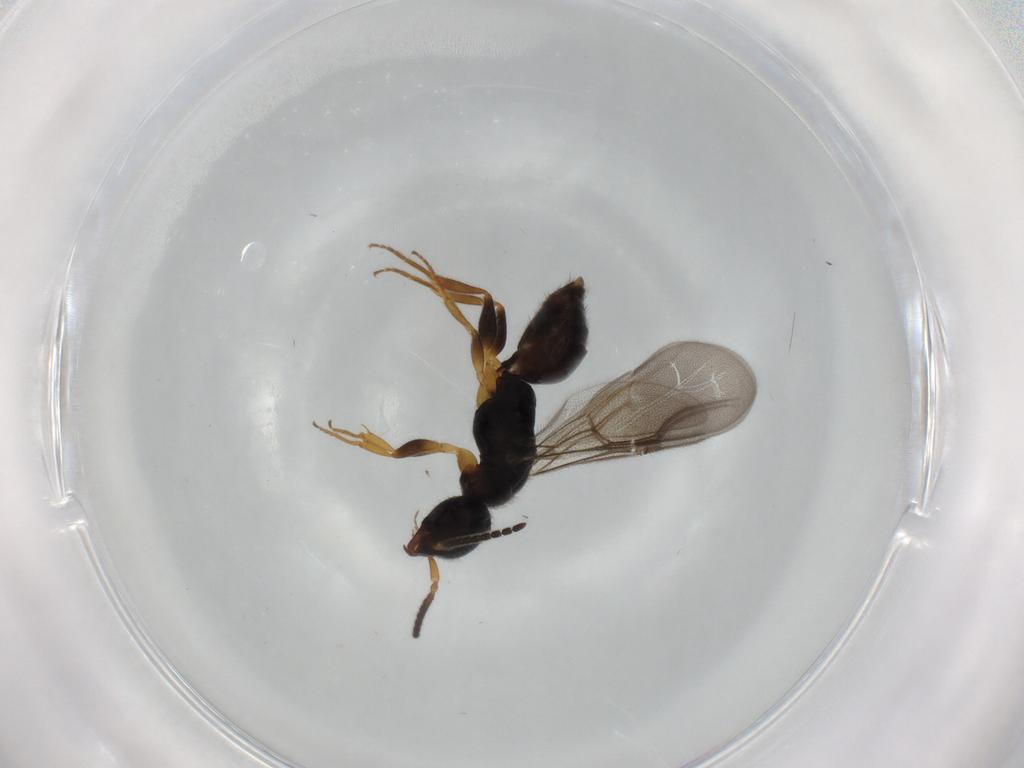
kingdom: Animalia
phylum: Arthropoda
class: Insecta
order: Hymenoptera
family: Bethylidae
